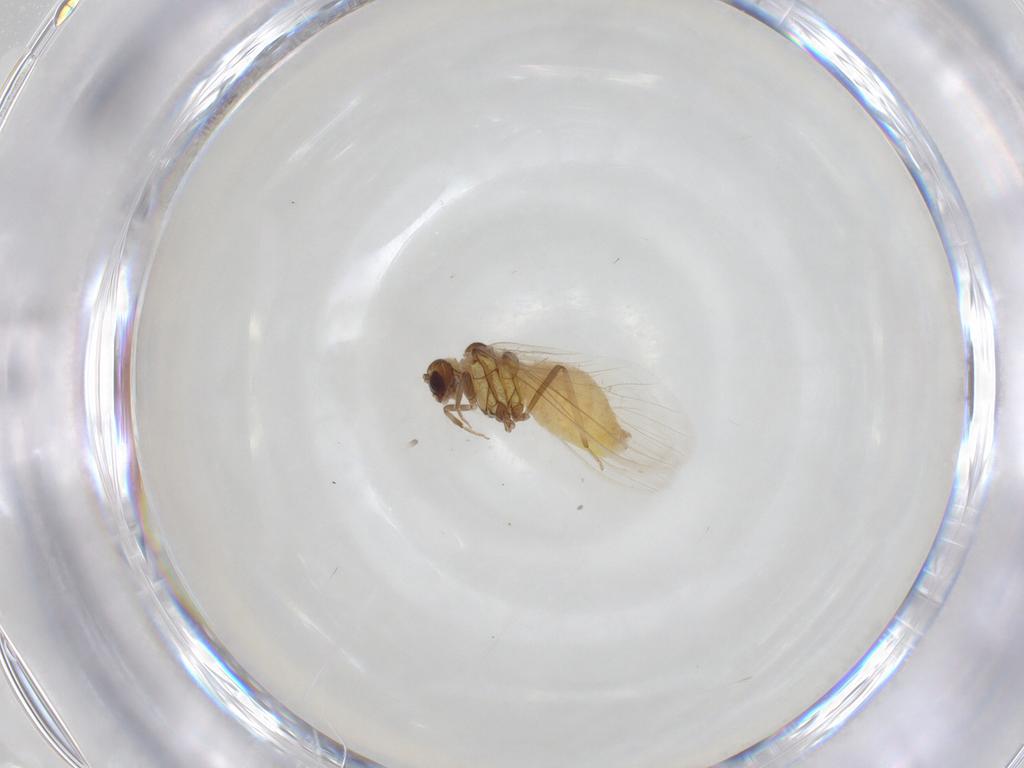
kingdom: Animalia
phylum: Arthropoda
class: Insecta
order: Neuroptera
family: Coniopterygidae
